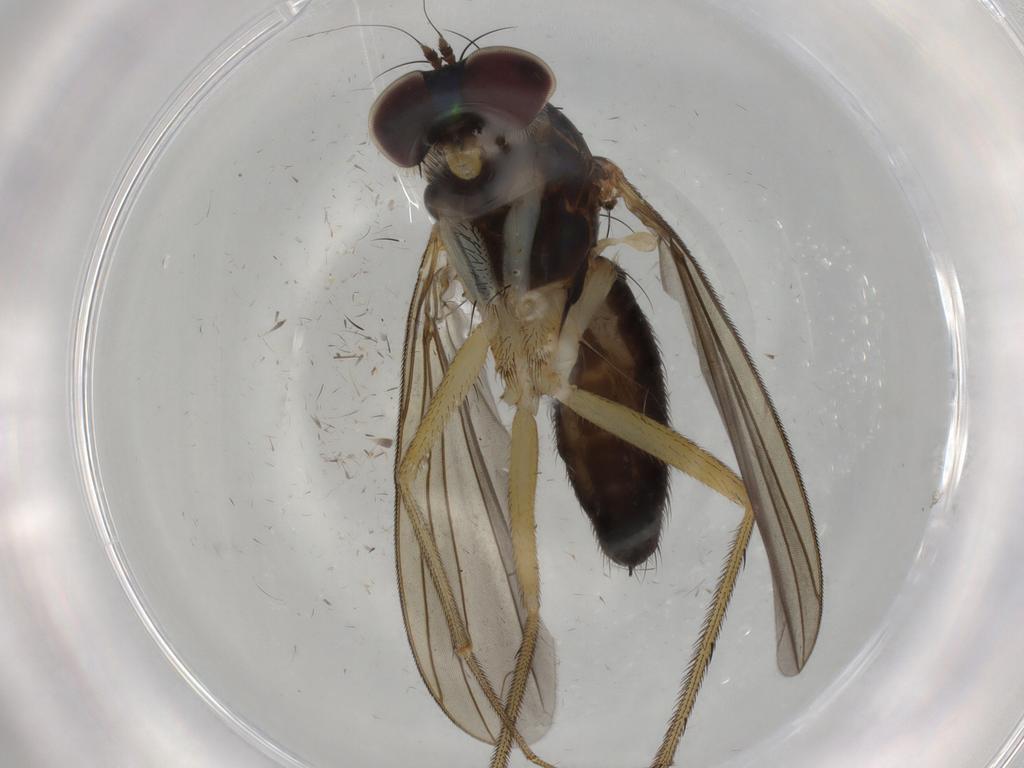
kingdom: Animalia
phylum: Arthropoda
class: Insecta
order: Diptera
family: Dolichopodidae
